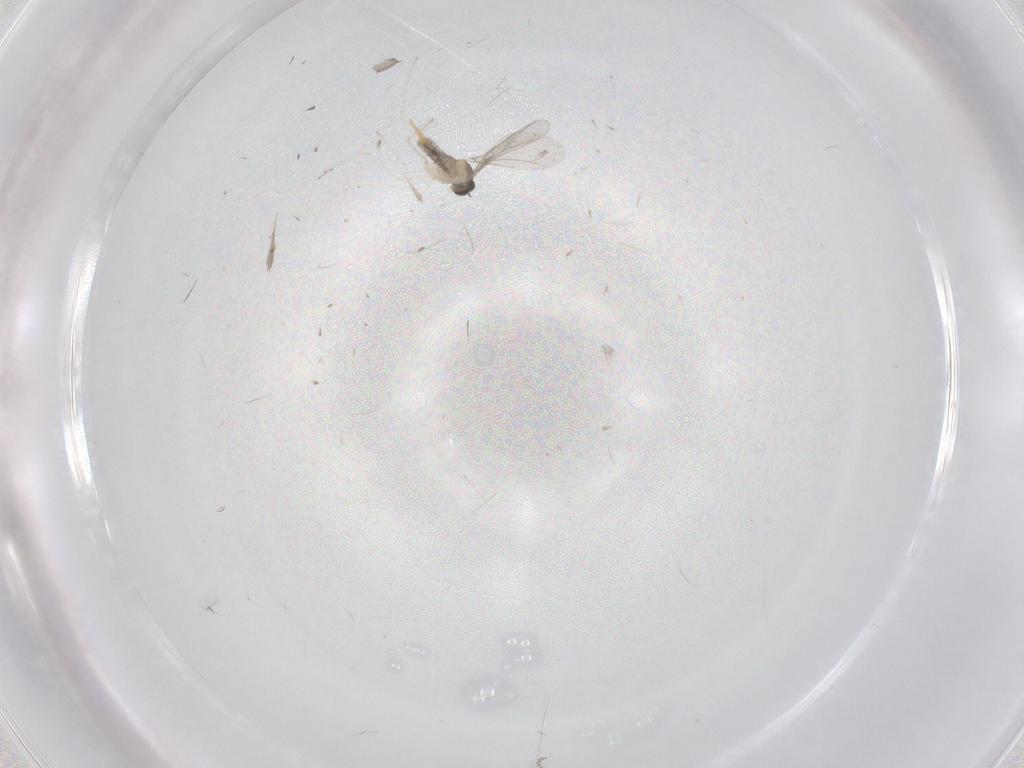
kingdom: Animalia
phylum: Arthropoda
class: Insecta
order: Diptera
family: Cecidomyiidae
